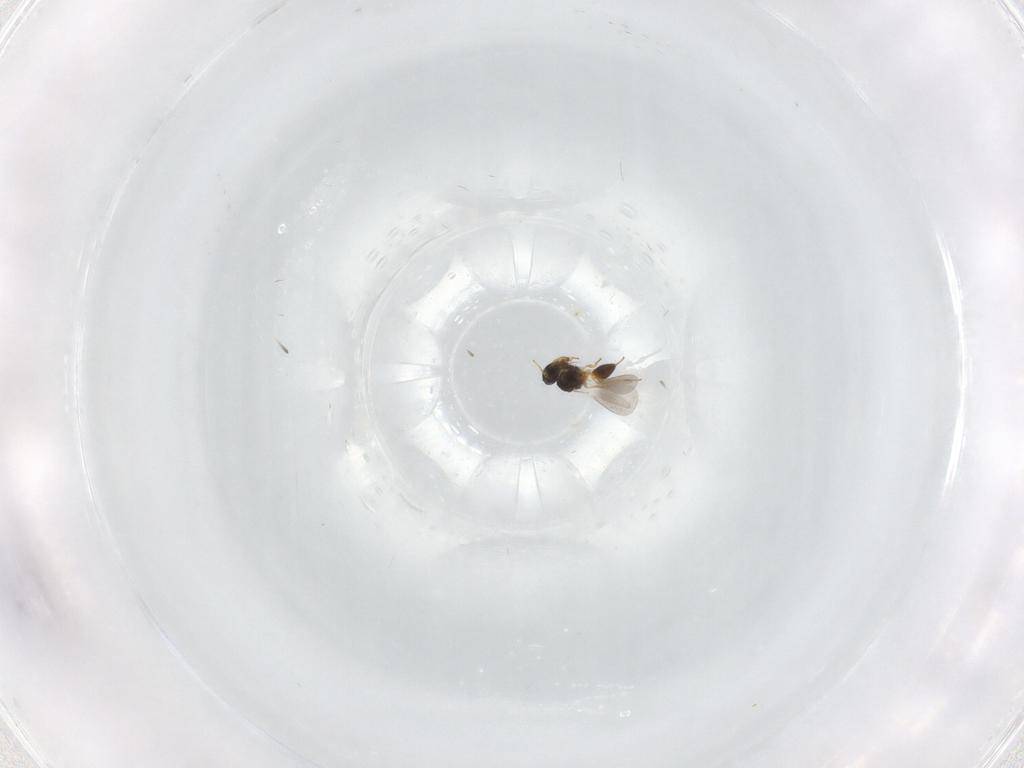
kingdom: Animalia
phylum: Arthropoda
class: Insecta
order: Hymenoptera
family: Platygastridae
